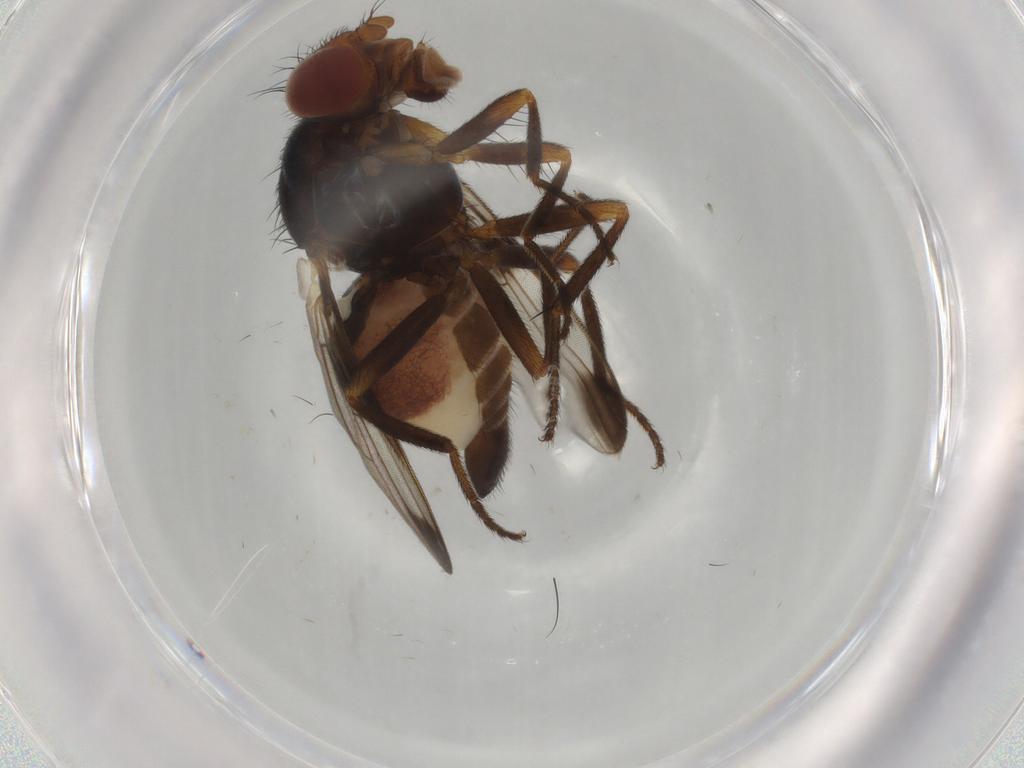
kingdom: Animalia
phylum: Arthropoda
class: Insecta
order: Diptera
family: Ulidiidae
